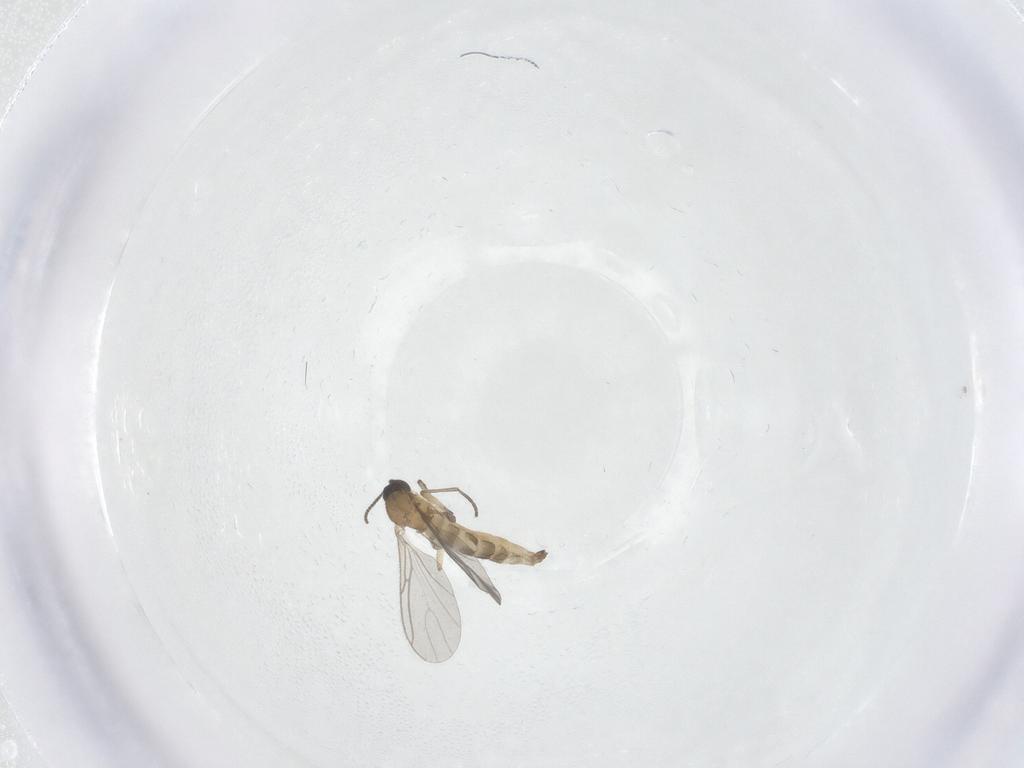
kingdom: Animalia
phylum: Arthropoda
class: Insecta
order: Diptera
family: Sciaridae
